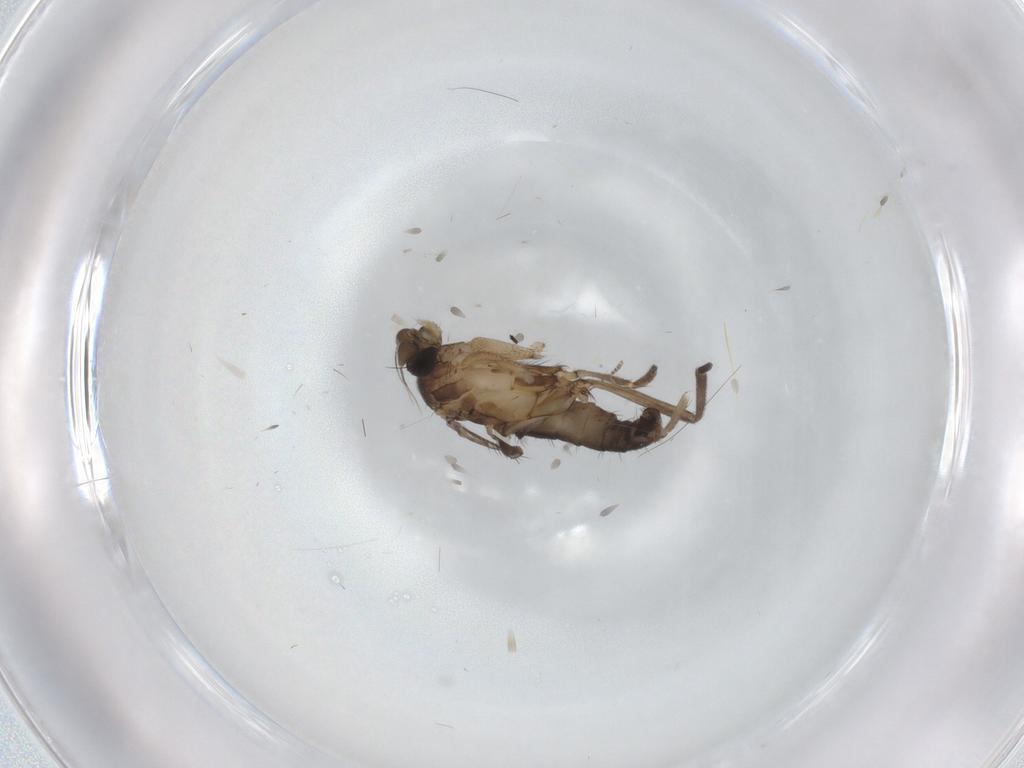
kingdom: Animalia
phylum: Arthropoda
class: Insecta
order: Diptera
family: Phoridae
